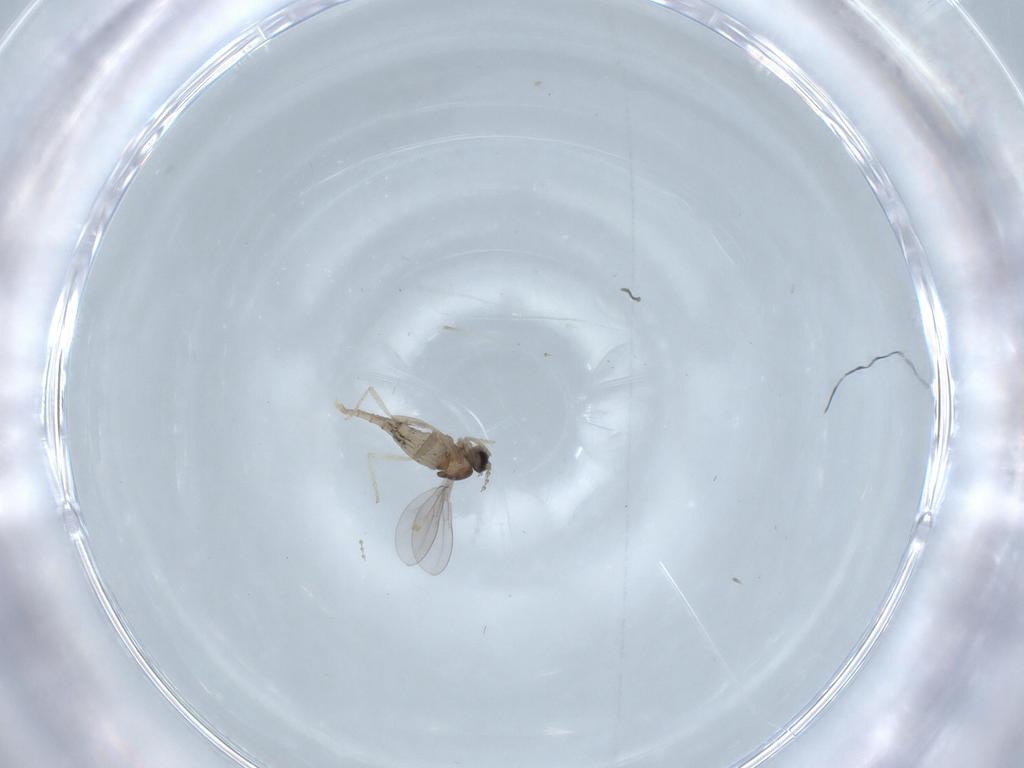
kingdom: Animalia
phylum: Arthropoda
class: Insecta
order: Diptera
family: Cecidomyiidae
